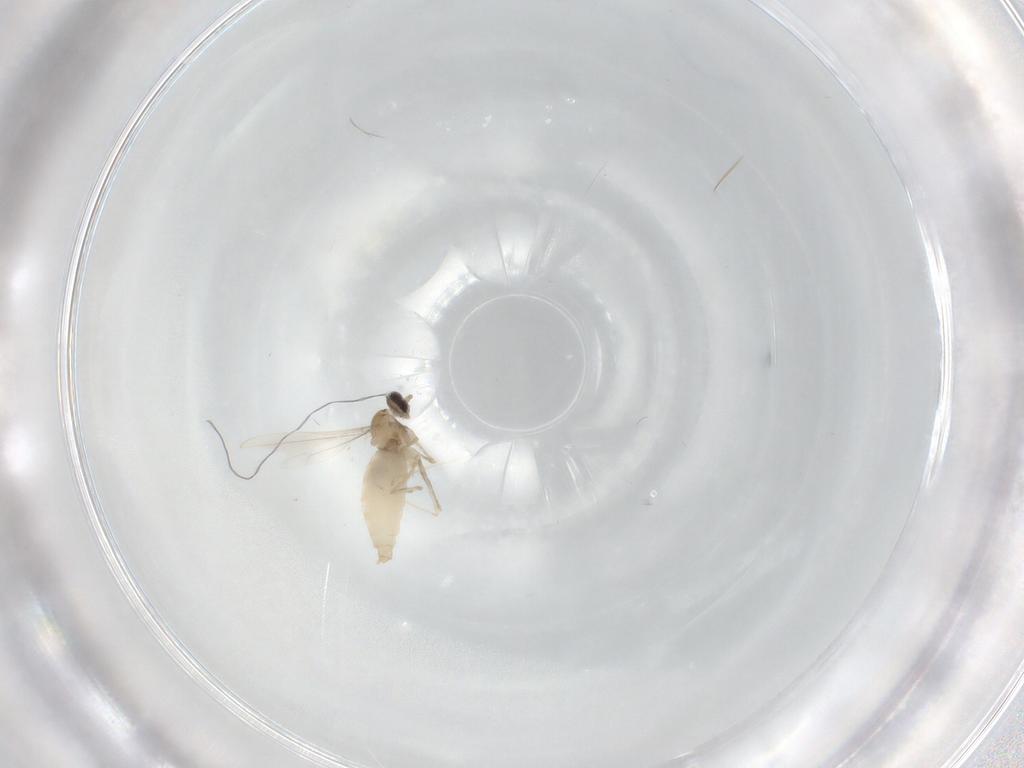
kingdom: Animalia
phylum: Arthropoda
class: Insecta
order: Diptera
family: Cecidomyiidae
